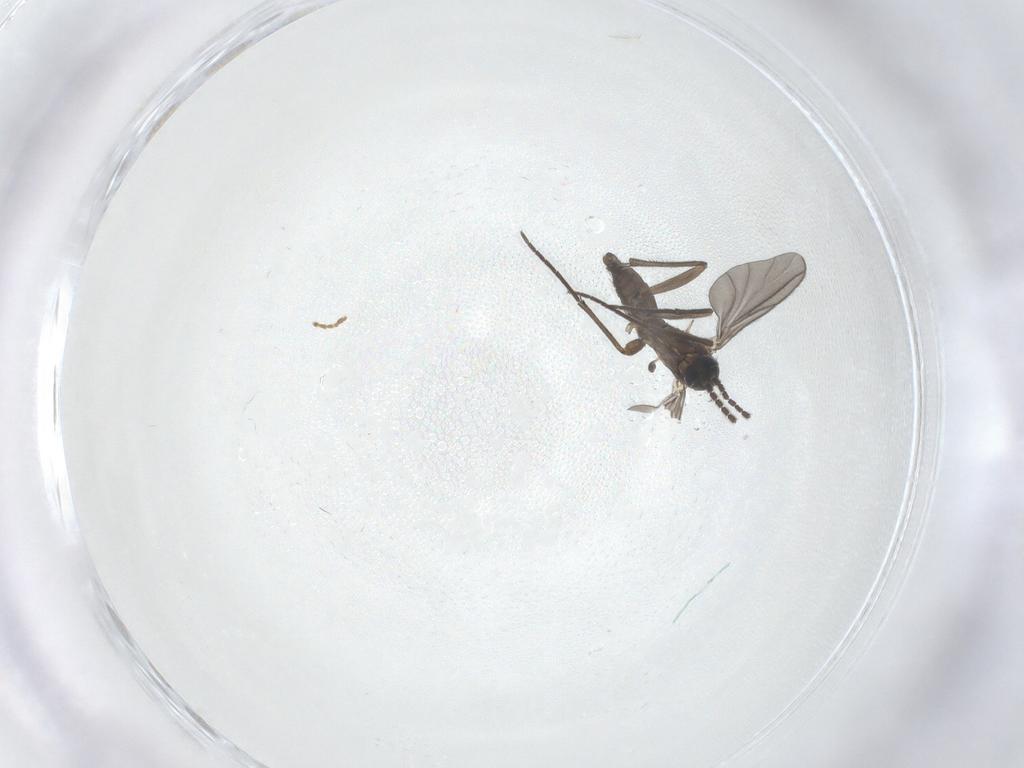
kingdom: Animalia
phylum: Arthropoda
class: Insecta
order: Diptera
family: Sciaridae
